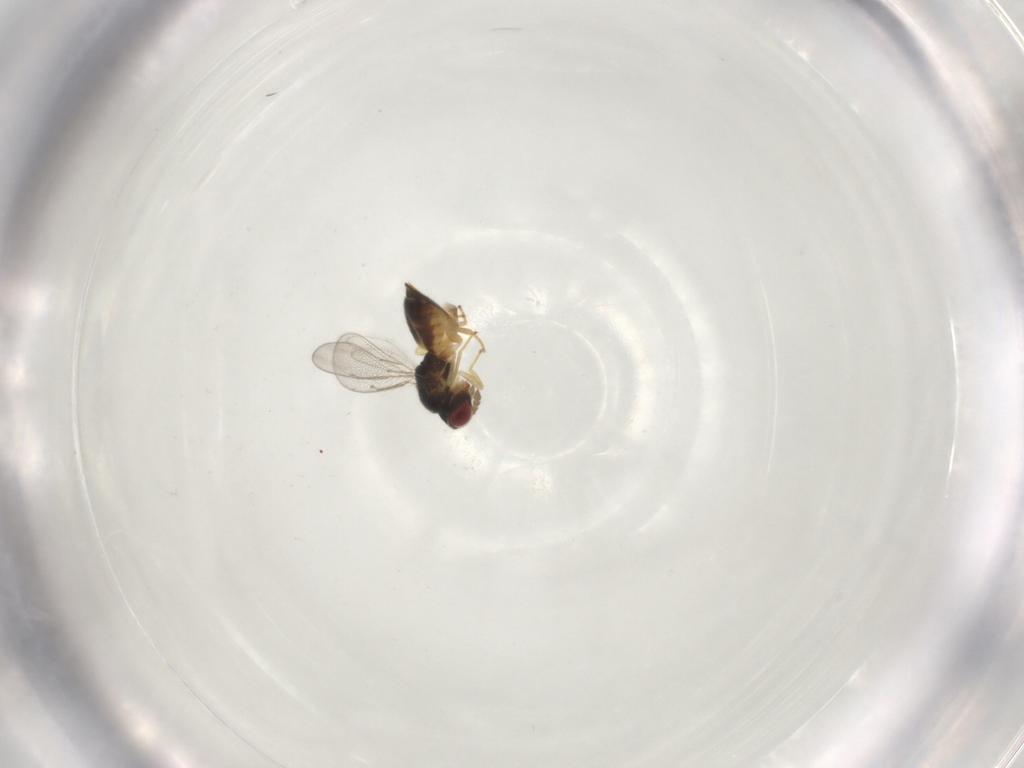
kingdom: Animalia
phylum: Arthropoda
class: Insecta
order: Hymenoptera
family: Eulophidae
